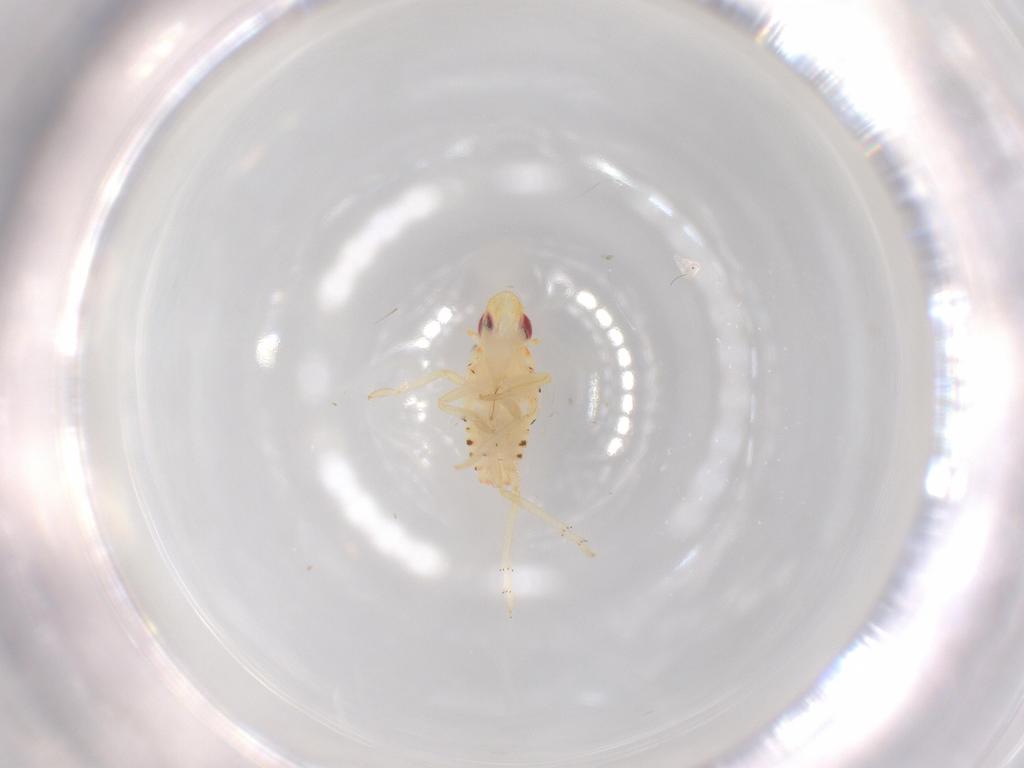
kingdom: Animalia
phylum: Arthropoda
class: Insecta
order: Hemiptera
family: Tropiduchidae
